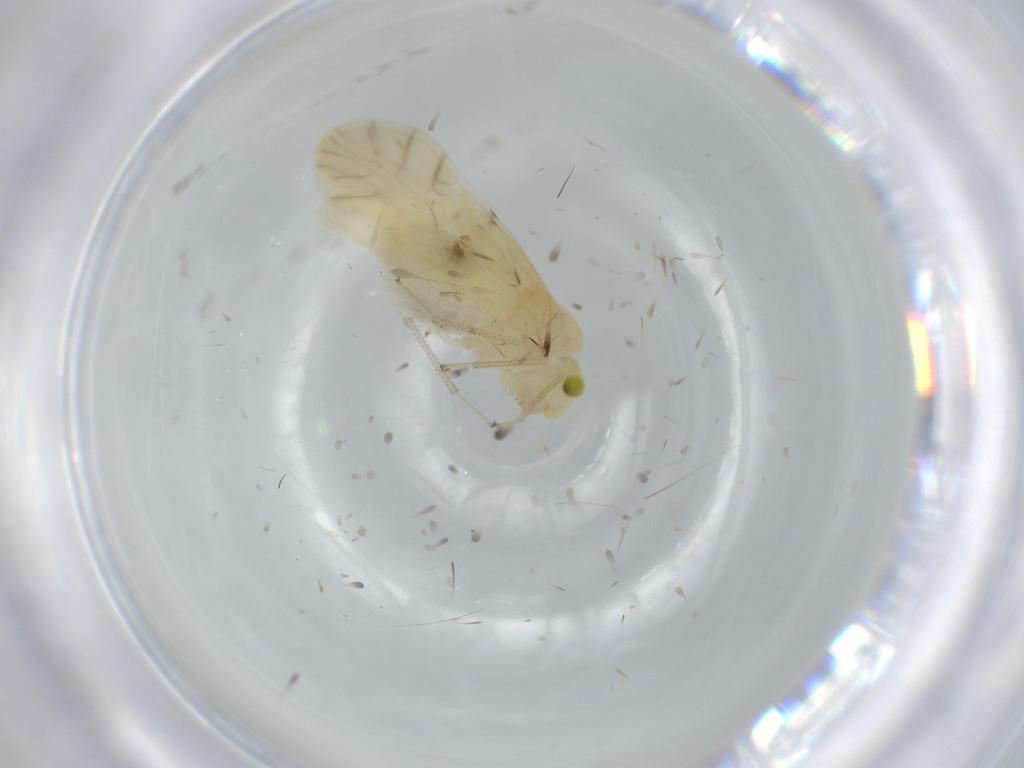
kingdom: Animalia
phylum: Arthropoda
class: Insecta
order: Psocodea
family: Caeciliusidae
